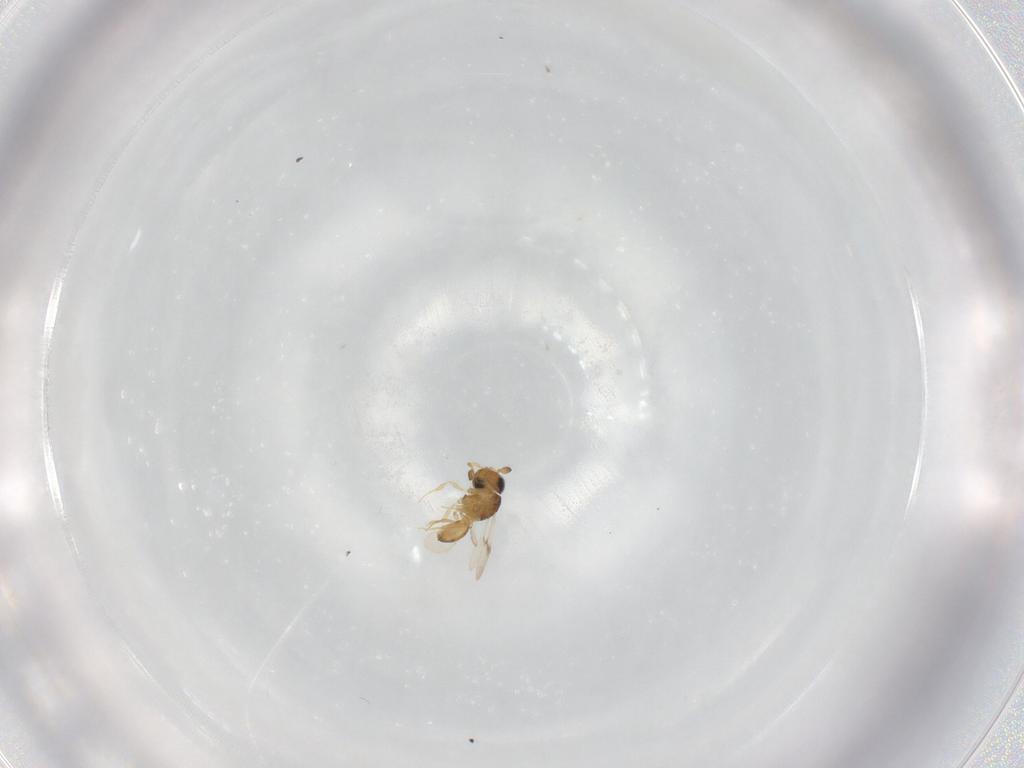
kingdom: Animalia
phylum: Arthropoda
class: Insecta
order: Hymenoptera
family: Scelionidae
